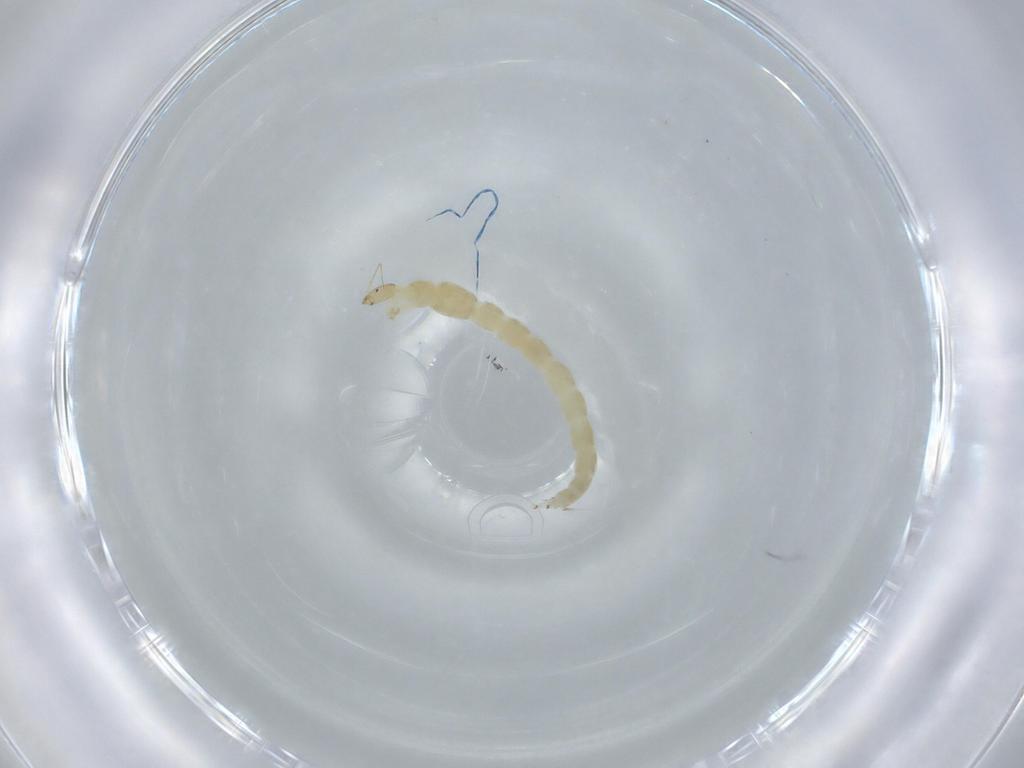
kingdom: Animalia
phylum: Arthropoda
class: Insecta
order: Diptera
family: Chironomidae
